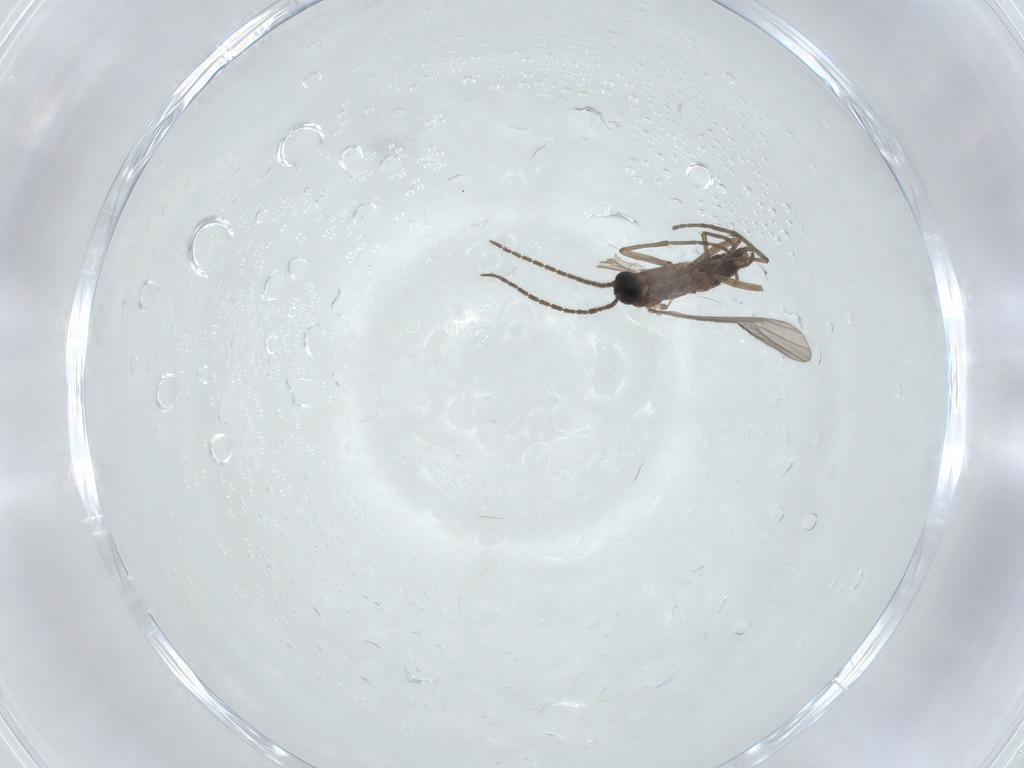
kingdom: Animalia
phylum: Arthropoda
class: Insecta
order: Diptera
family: Sciaridae
